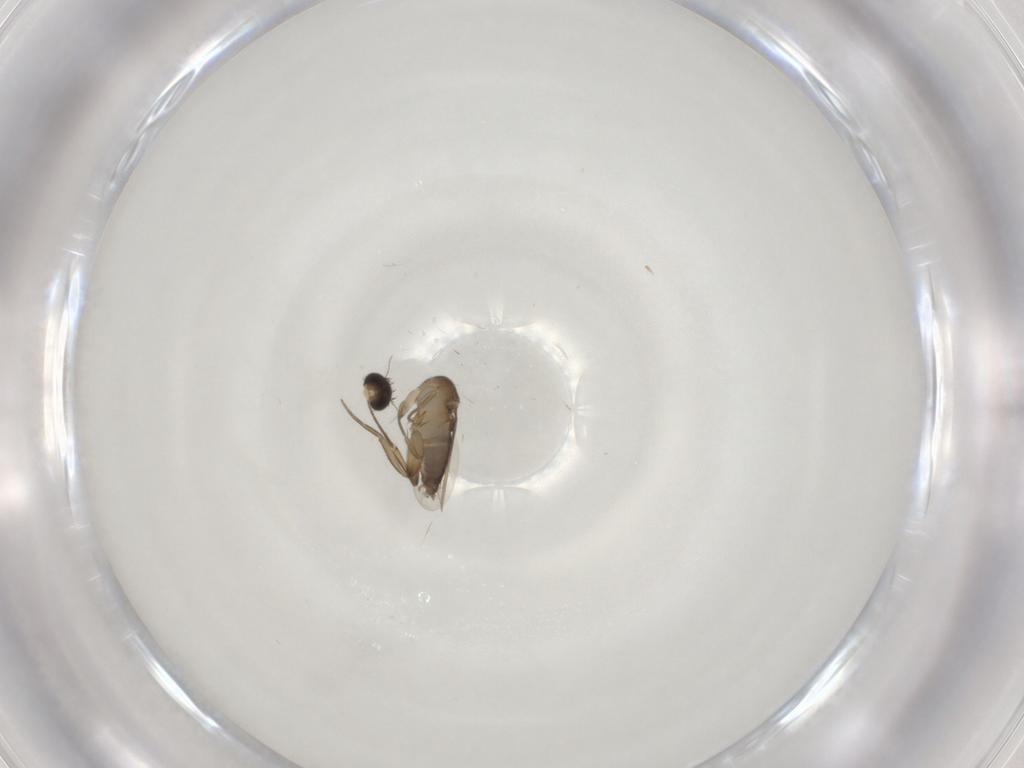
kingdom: Animalia
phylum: Arthropoda
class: Insecta
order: Diptera
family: Phoridae
